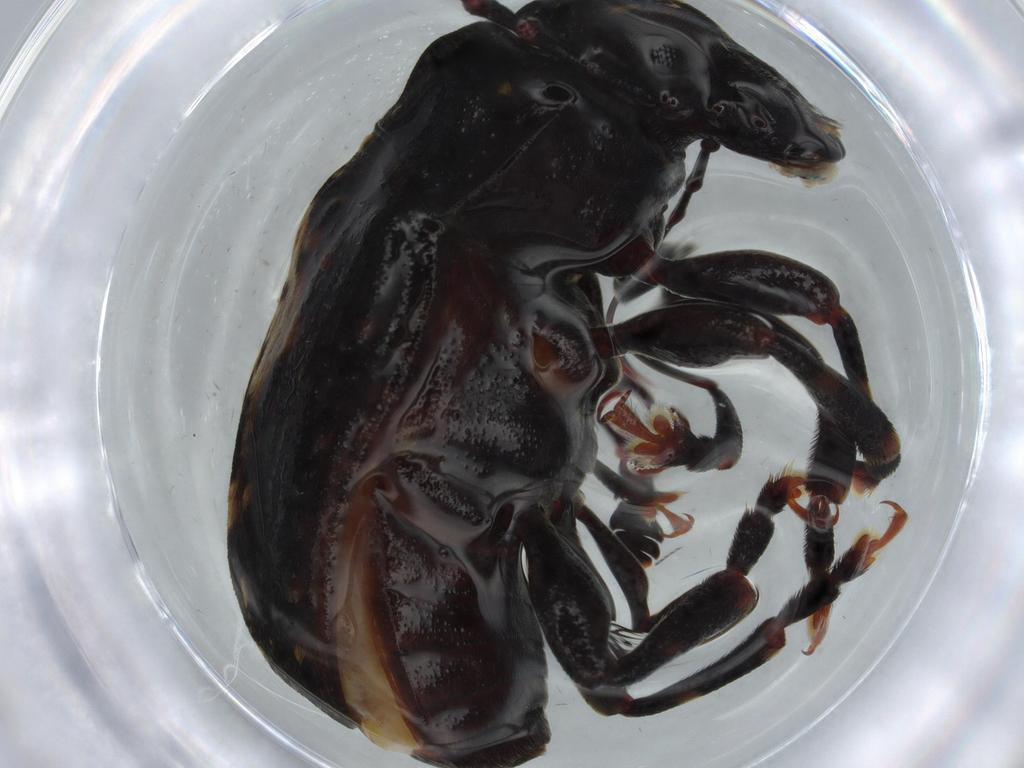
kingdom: Animalia
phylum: Arthropoda
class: Insecta
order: Coleoptera
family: Anthribidae
